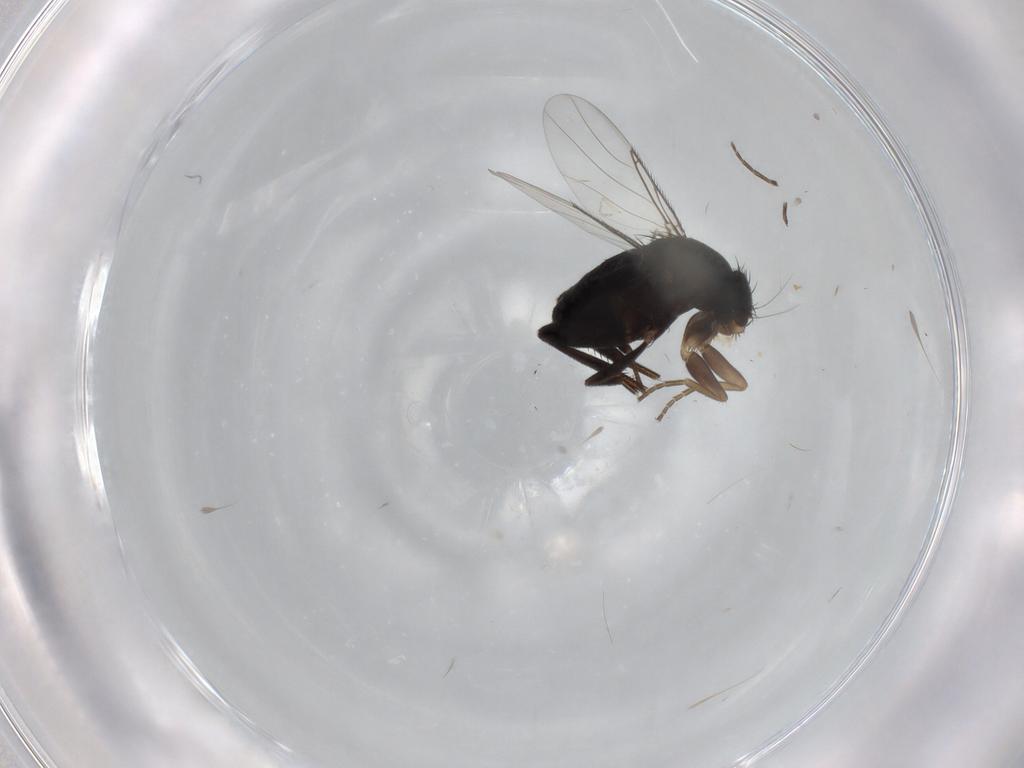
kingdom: Animalia
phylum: Arthropoda
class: Insecta
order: Diptera
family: Phoridae
